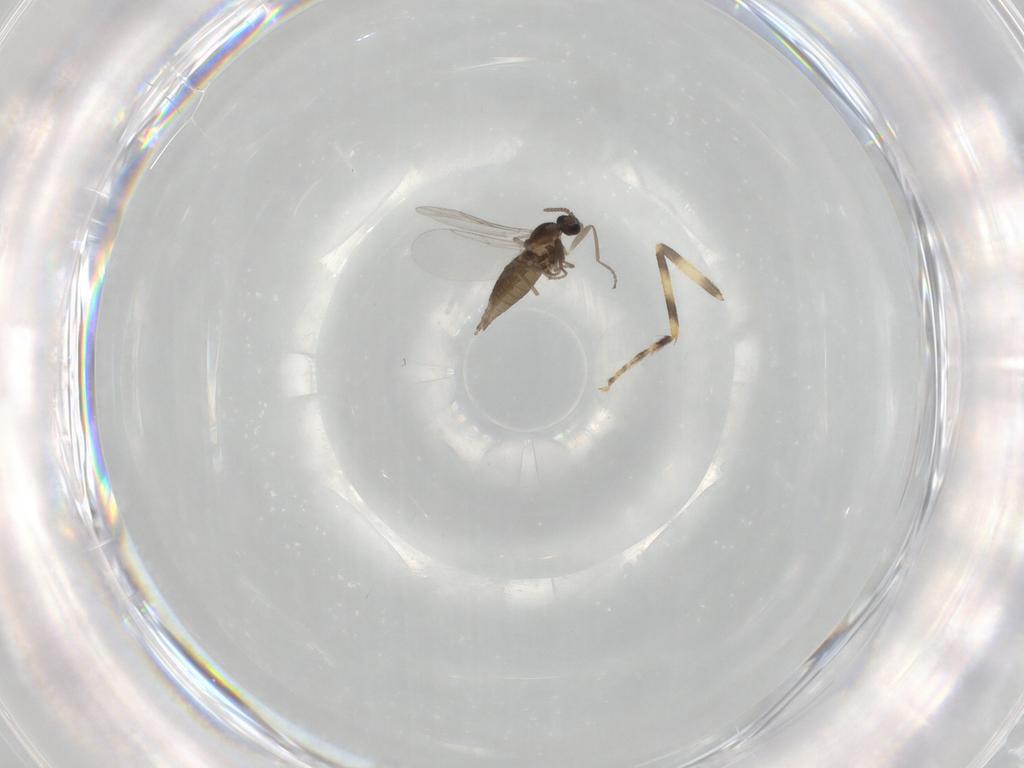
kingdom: Animalia
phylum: Arthropoda
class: Insecta
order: Diptera
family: Cecidomyiidae
